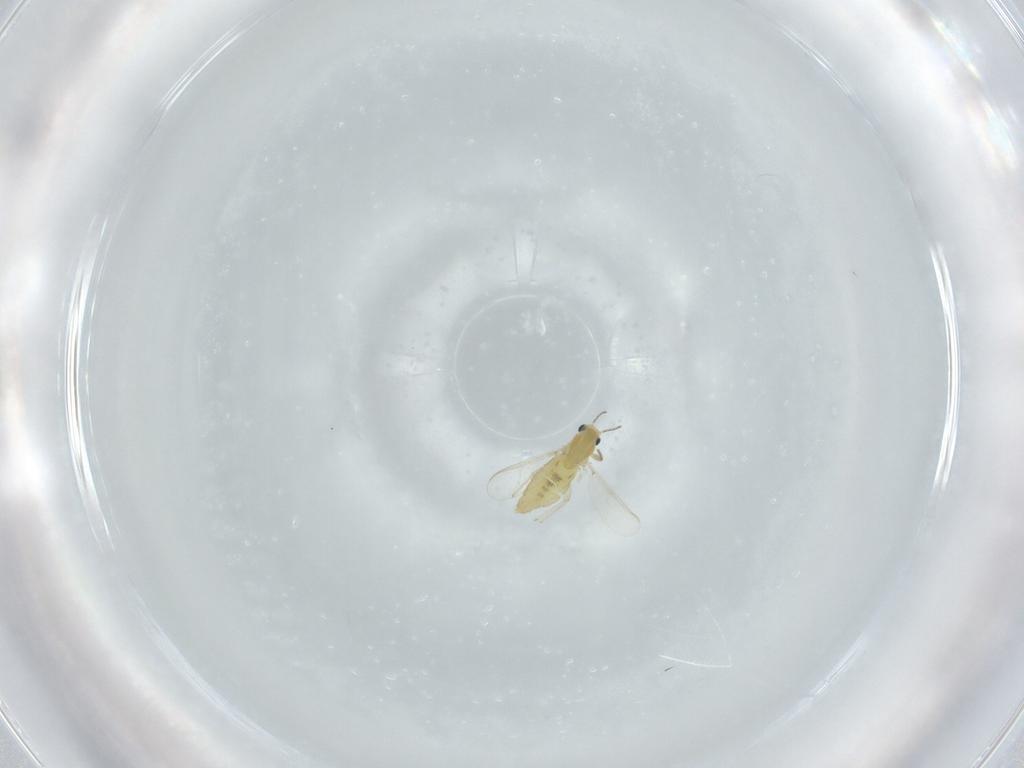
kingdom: Animalia
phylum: Arthropoda
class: Insecta
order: Diptera
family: Chironomidae
